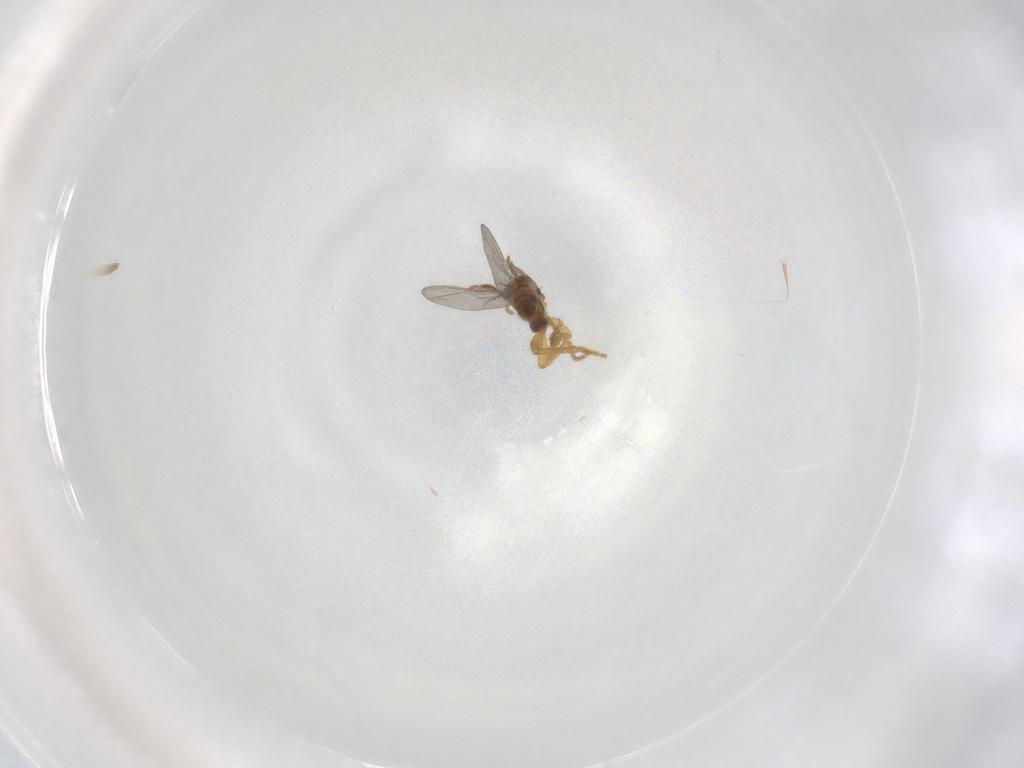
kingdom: Animalia
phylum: Arthropoda
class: Insecta
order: Diptera
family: Phoridae
